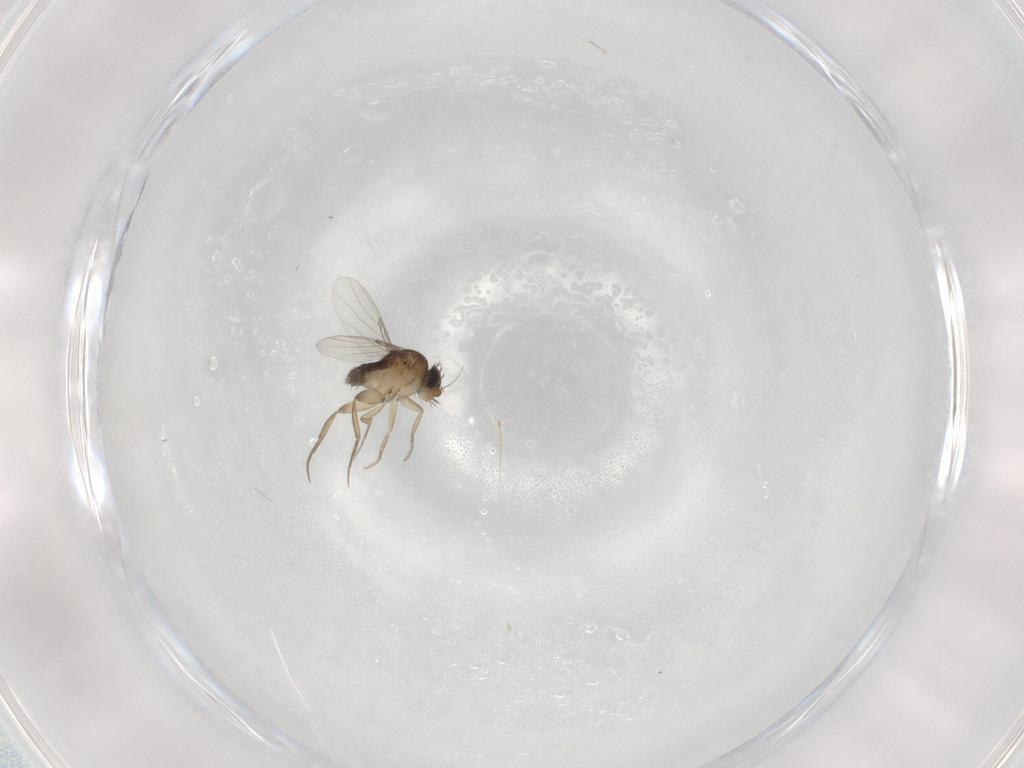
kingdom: Animalia
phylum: Arthropoda
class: Insecta
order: Diptera
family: Phoridae
